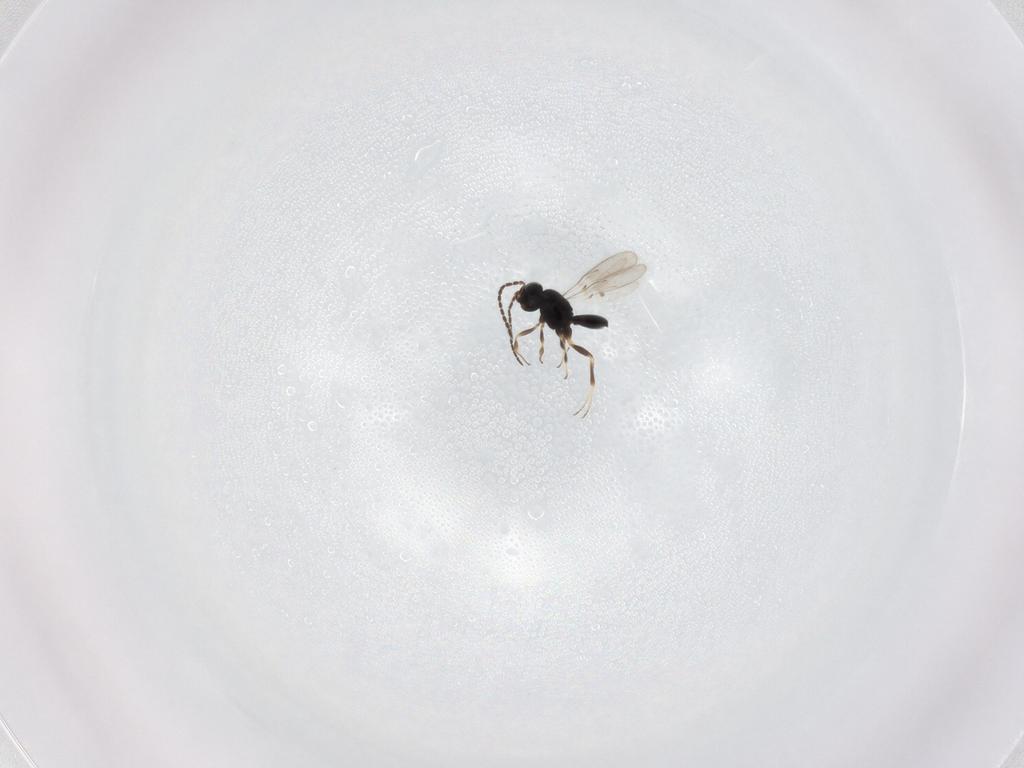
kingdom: Animalia
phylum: Arthropoda
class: Insecta
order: Hymenoptera
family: Scelionidae
